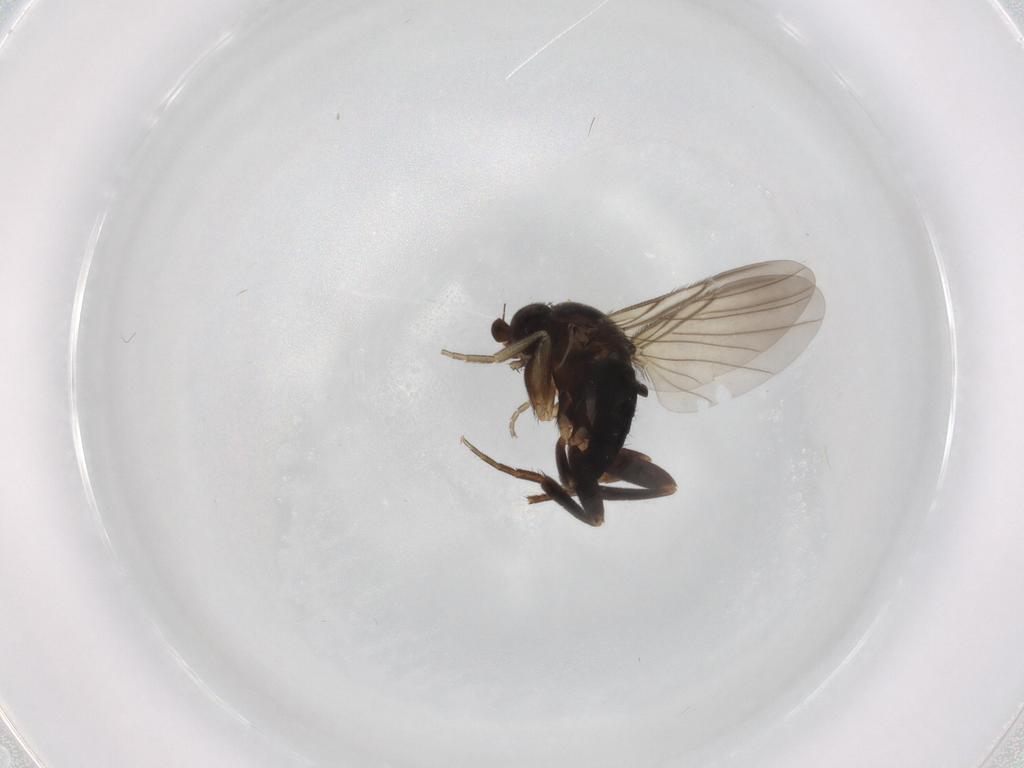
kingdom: Animalia
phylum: Arthropoda
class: Insecta
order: Diptera
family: Cecidomyiidae
